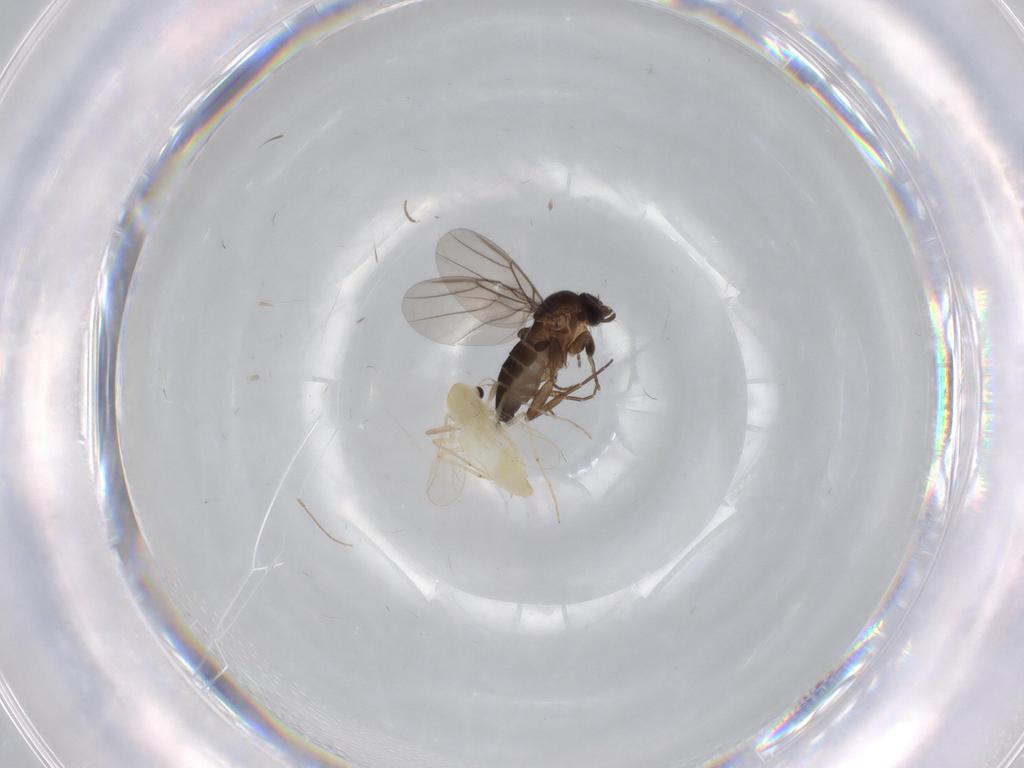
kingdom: Animalia
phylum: Arthropoda
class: Insecta
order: Diptera
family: Phoridae
